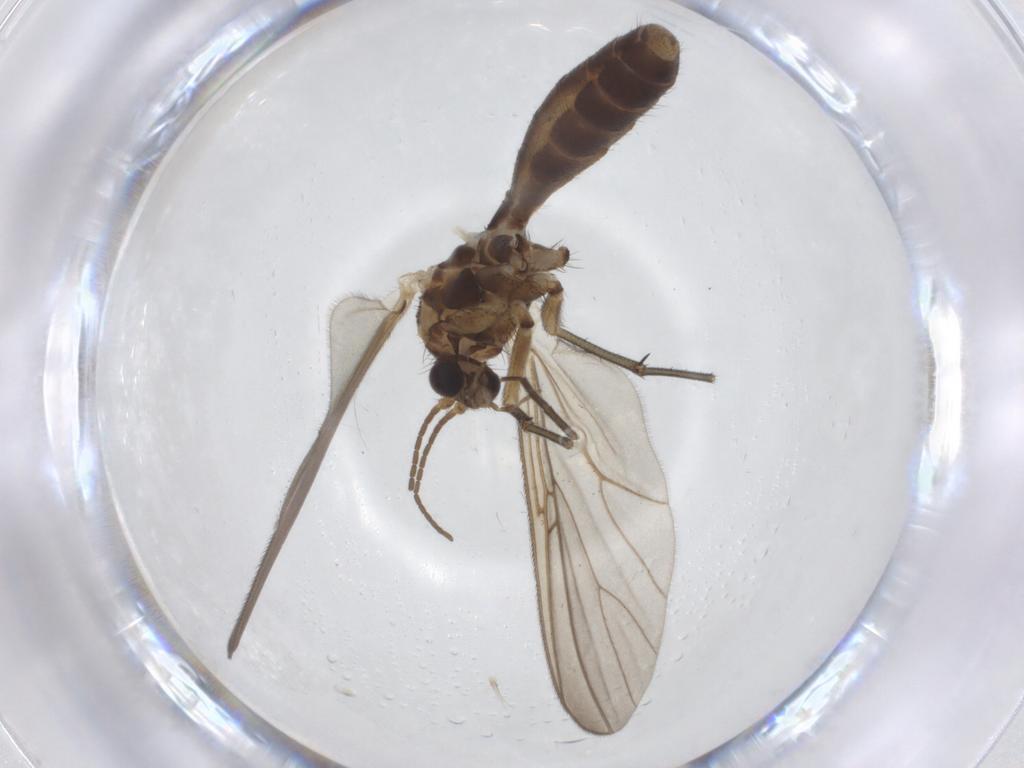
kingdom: Animalia
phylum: Arthropoda
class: Insecta
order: Diptera
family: Mycetophilidae
